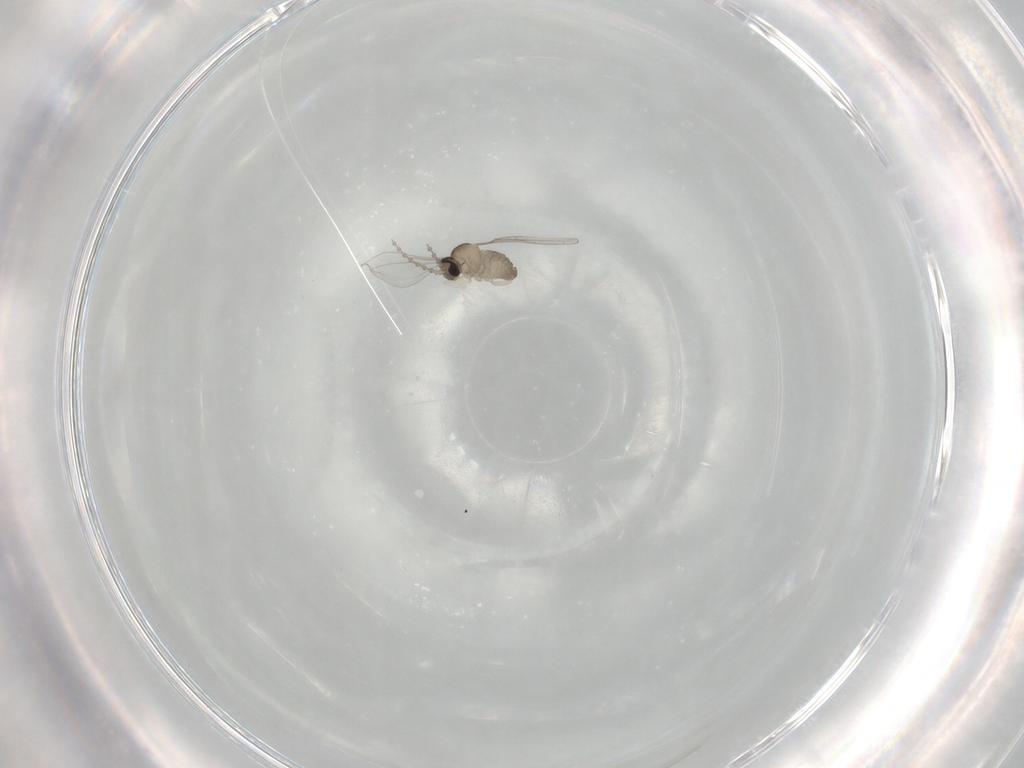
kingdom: Animalia
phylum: Arthropoda
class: Insecta
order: Diptera
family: Cecidomyiidae
